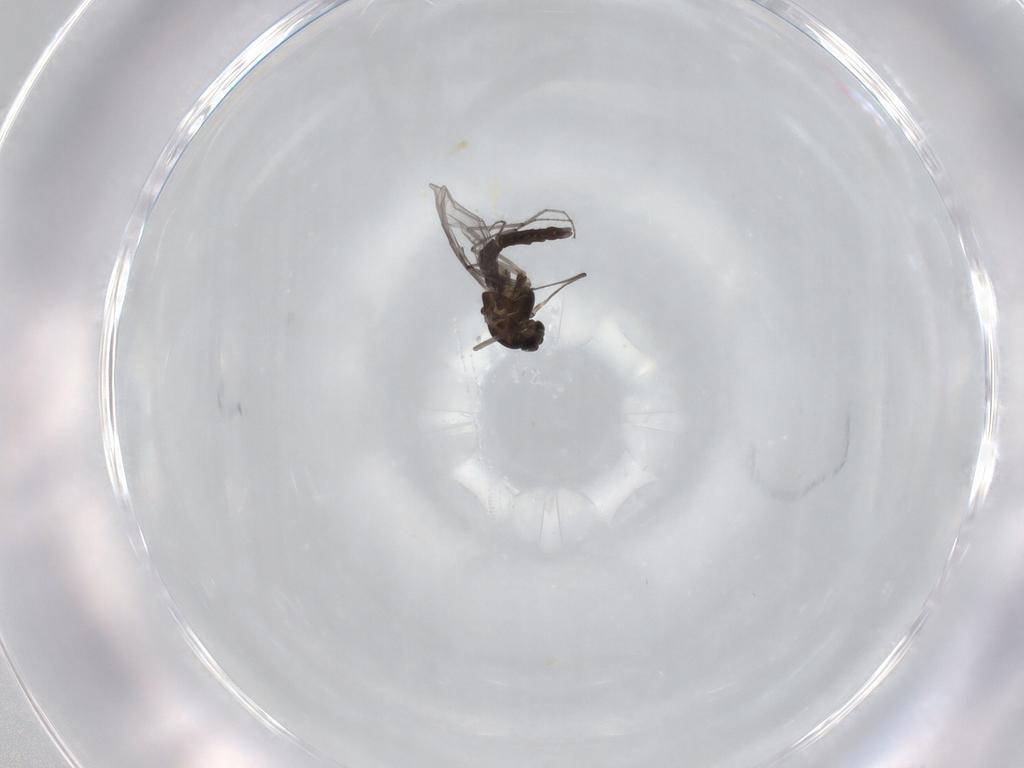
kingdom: Animalia
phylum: Arthropoda
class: Insecta
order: Diptera
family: Chironomidae
